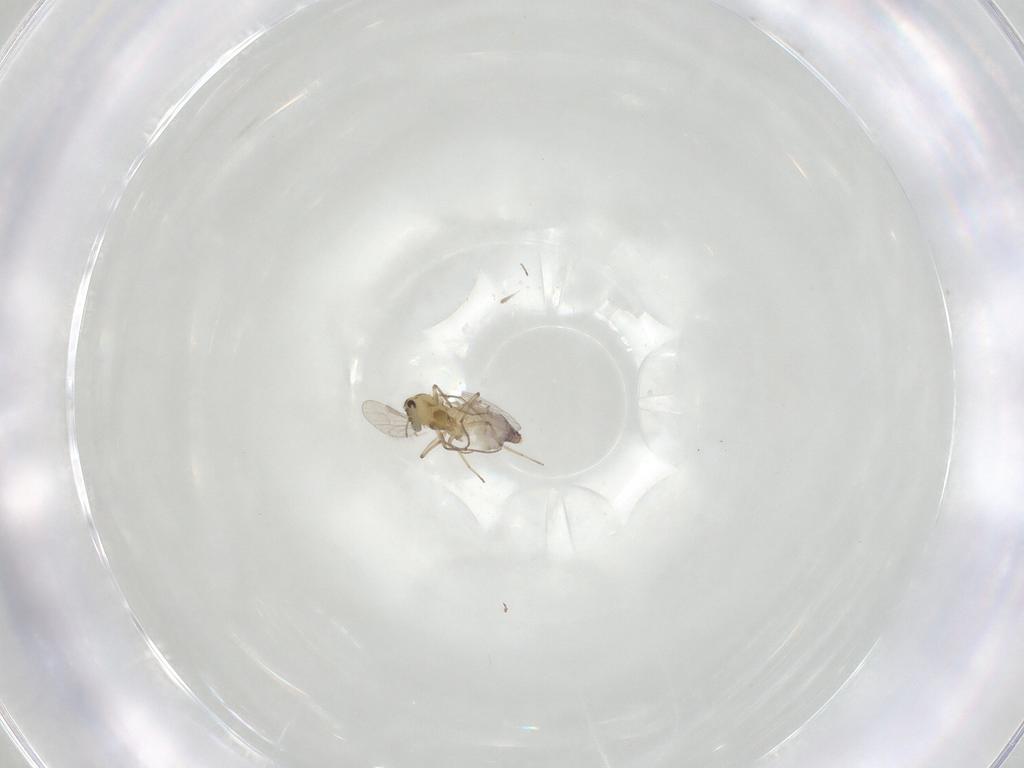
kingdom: Animalia
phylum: Arthropoda
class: Insecta
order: Diptera
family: Chironomidae
